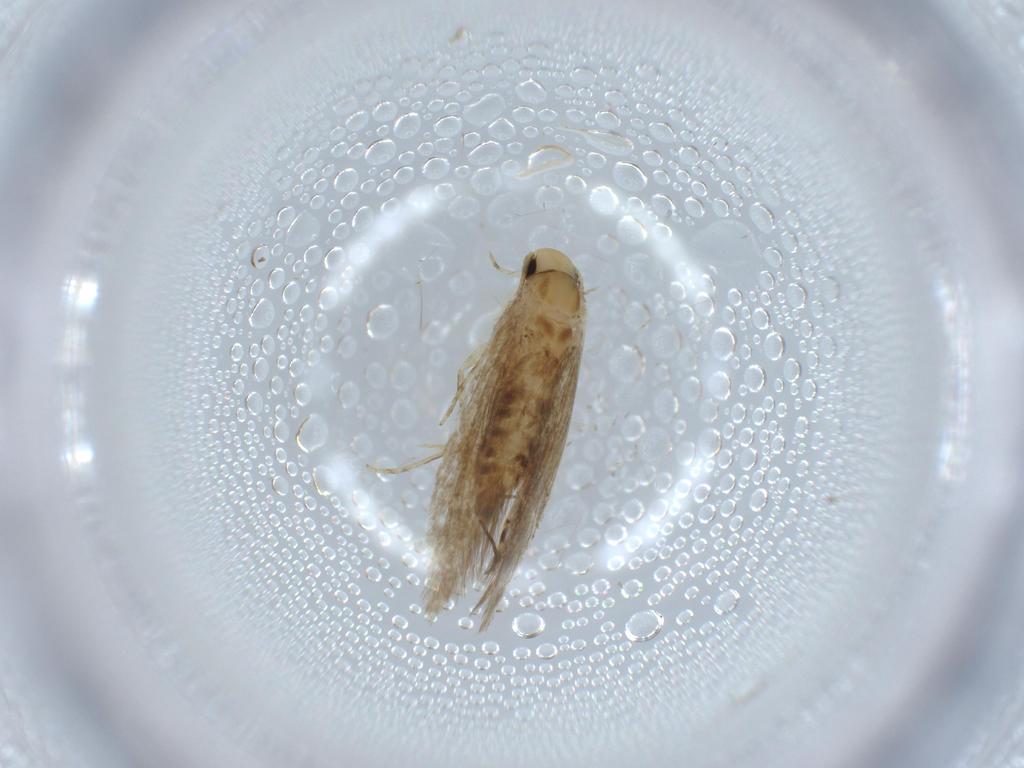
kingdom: Animalia
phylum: Arthropoda
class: Insecta
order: Lepidoptera
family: Tineidae
